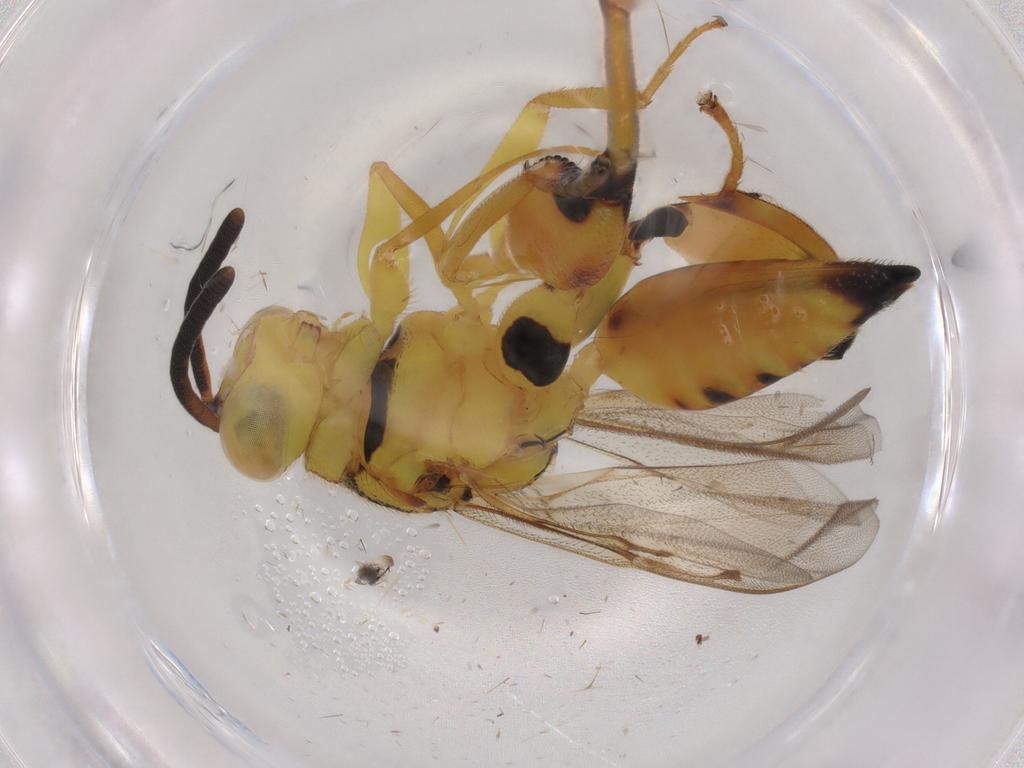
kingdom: Animalia
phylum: Arthropoda
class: Insecta
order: Hymenoptera
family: Chalcididae
